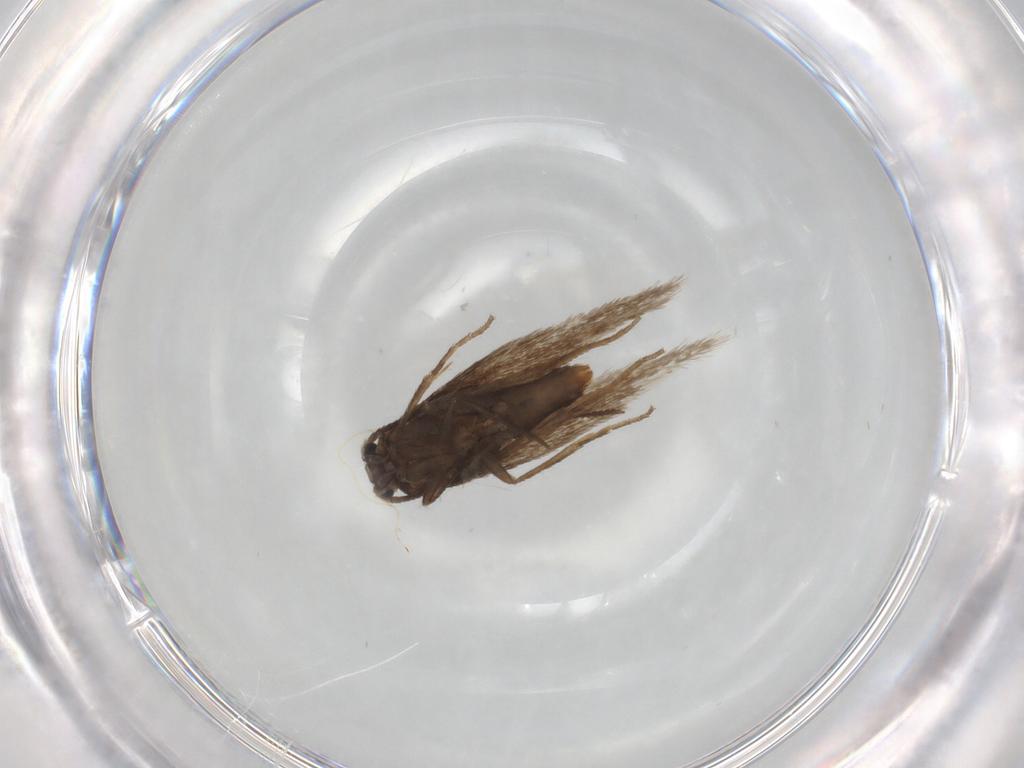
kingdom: Animalia
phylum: Arthropoda
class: Insecta
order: Lepidoptera
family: Nepticulidae
